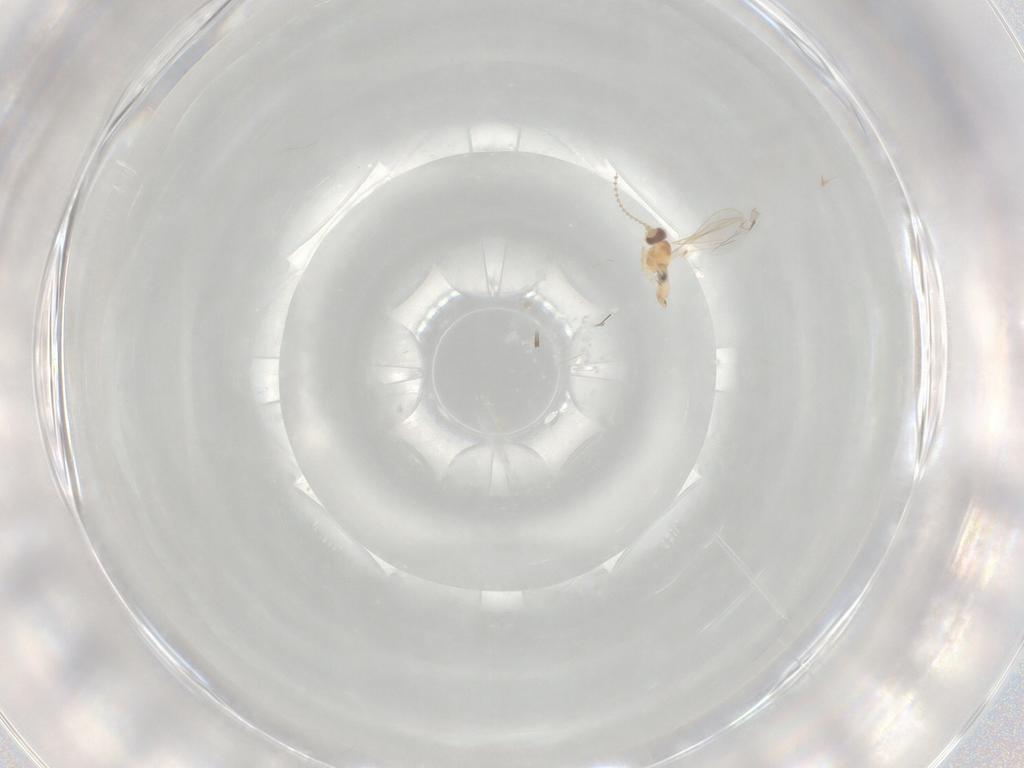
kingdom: Animalia
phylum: Arthropoda
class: Insecta
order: Diptera
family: Cecidomyiidae
